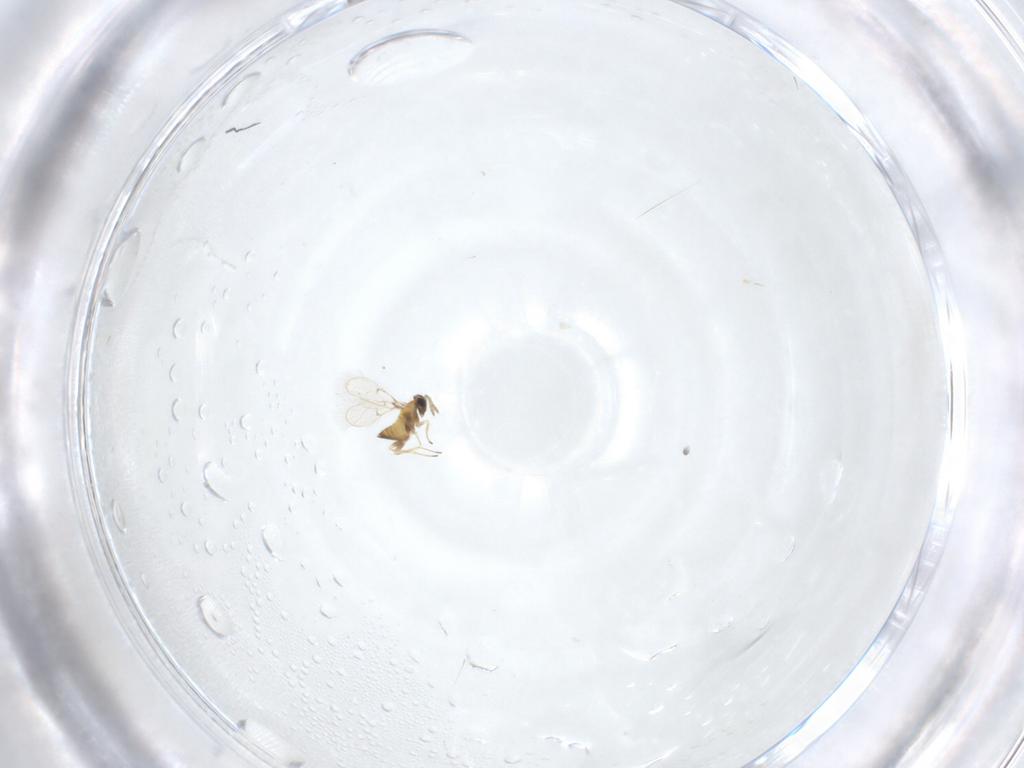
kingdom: Animalia
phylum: Arthropoda
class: Insecta
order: Hymenoptera
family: Trichogrammatidae
